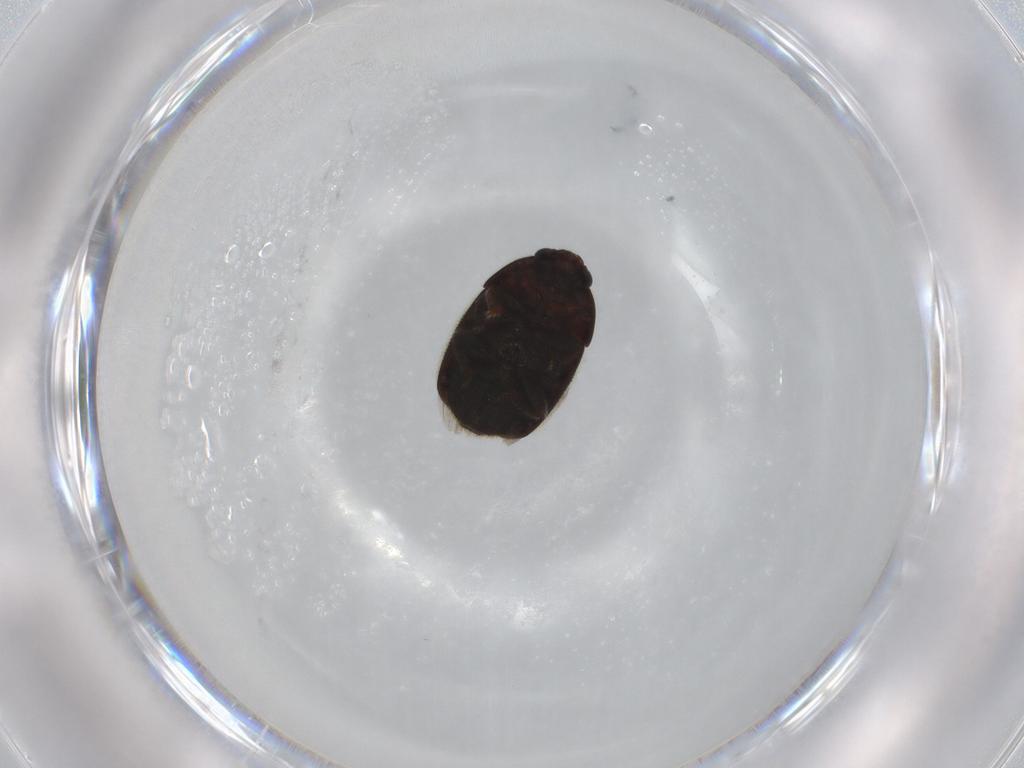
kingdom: Animalia
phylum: Arthropoda
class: Insecta
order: Coleoptera
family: Nitidulidae
